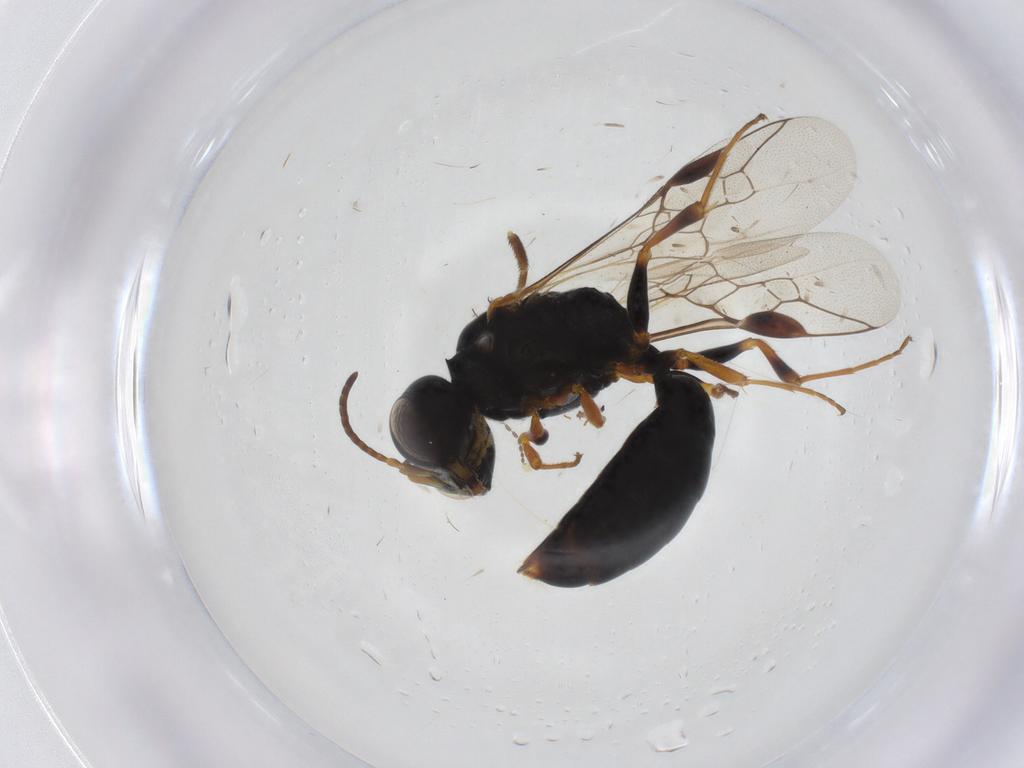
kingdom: Animalia
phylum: Arthropoda
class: Insecta
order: Hymenoptera
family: Crabronidae
